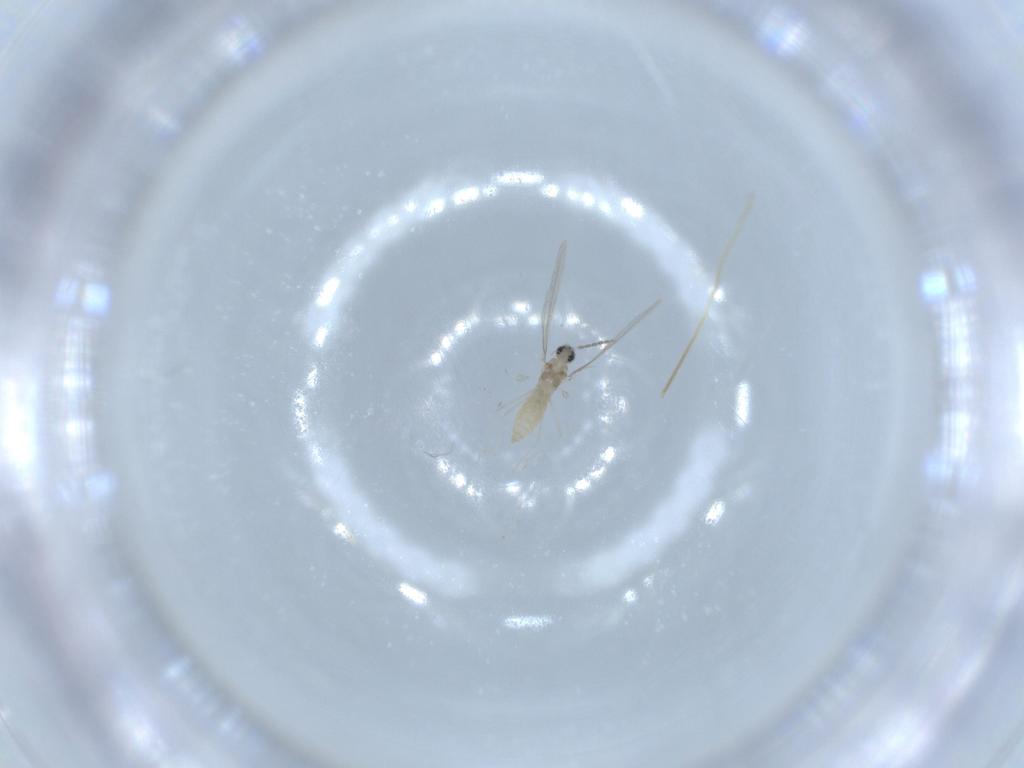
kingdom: Animalia
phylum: Arthropoda
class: Insecta
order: Diptera
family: Chironomidae
